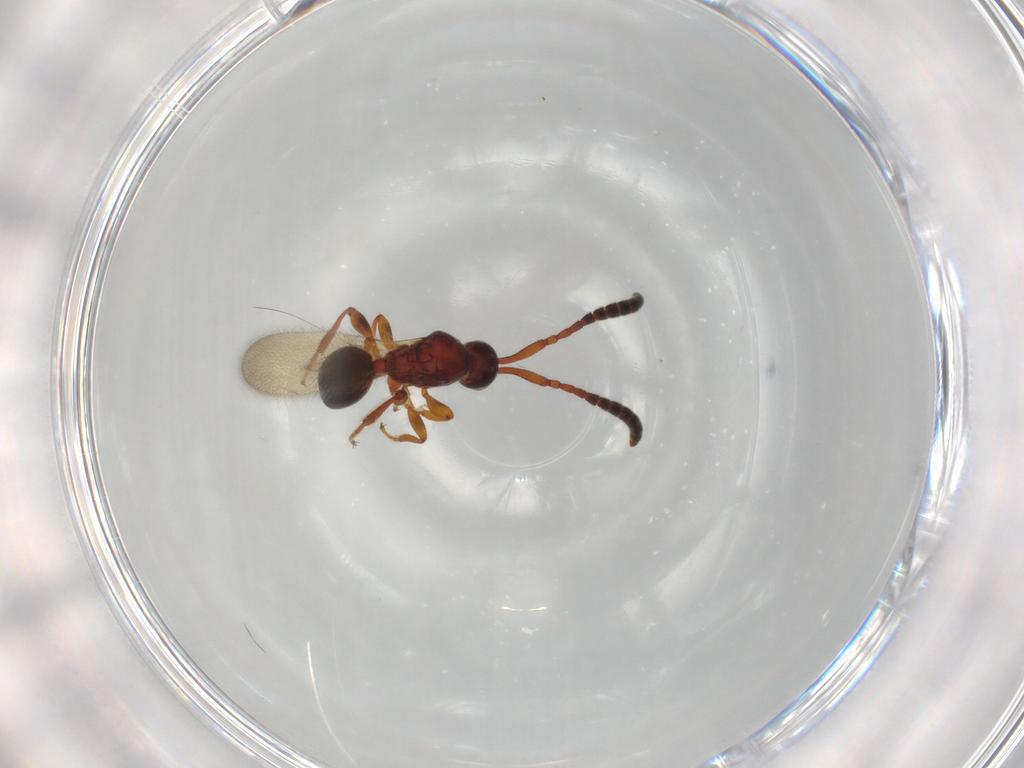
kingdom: Animalia
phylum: Arthropoda
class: Insecta
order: Hymenoptera
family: Diapriidae
